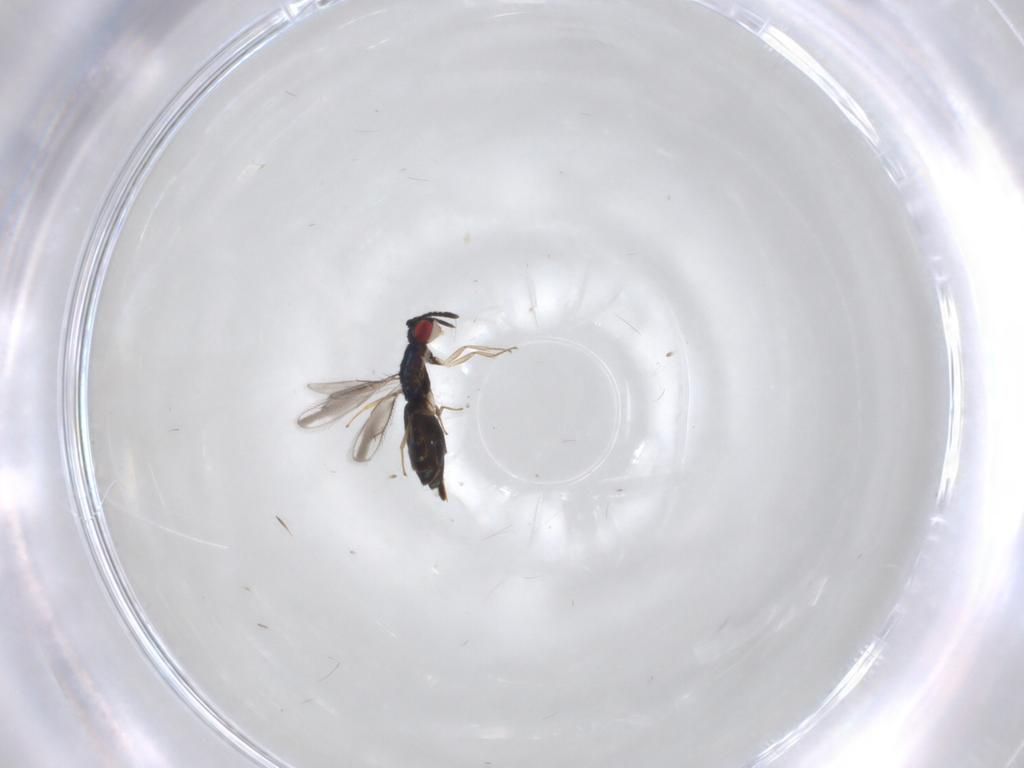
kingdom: Animalia
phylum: Arthropoda
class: Insecta
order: Hymenoptera
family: Pteromalidae
